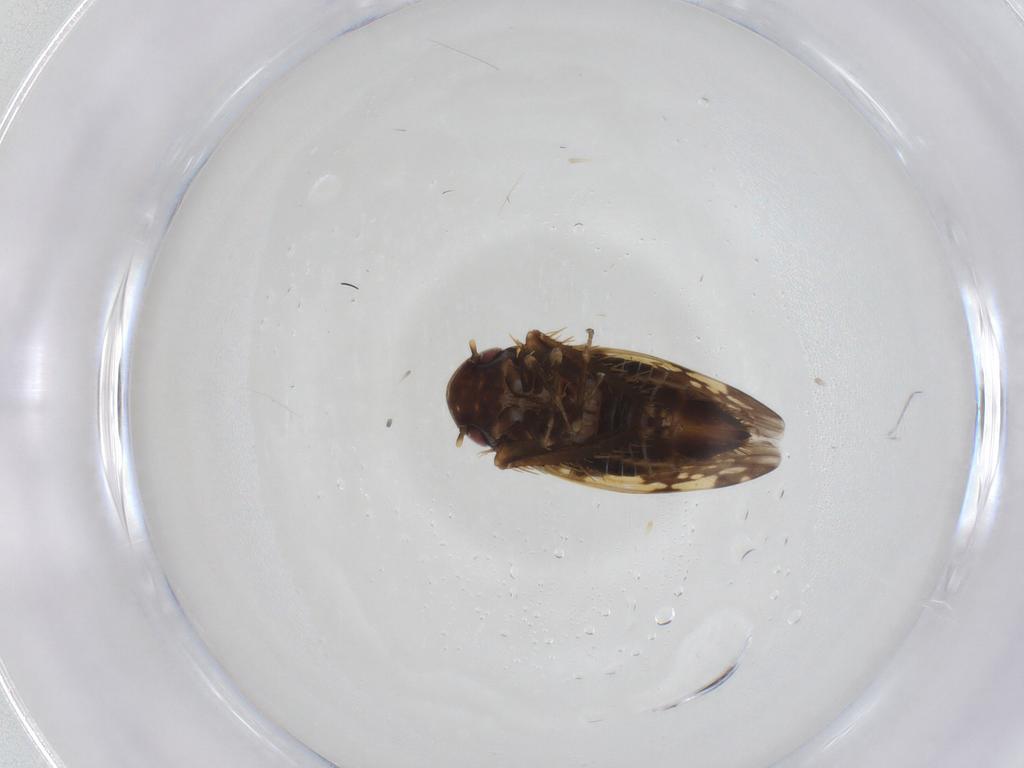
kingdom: Animalia
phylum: Arthropoda
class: Insecta
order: Hemiptera
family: Cicadellidae
